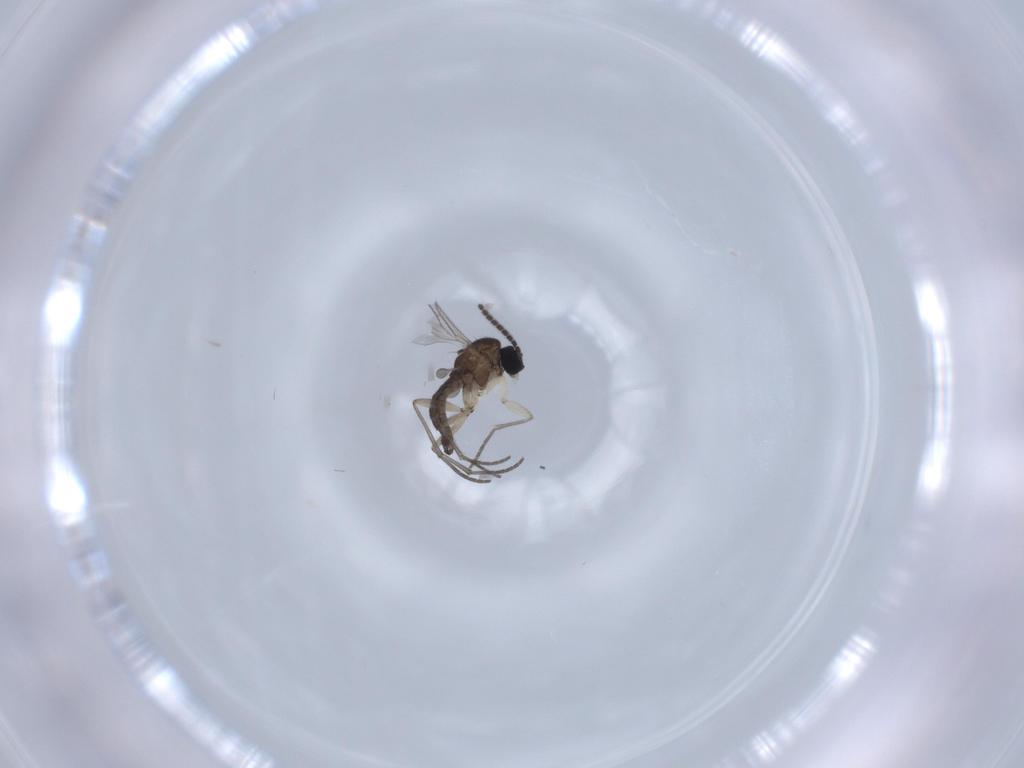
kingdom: Animalia
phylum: Arthropoda
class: Insecta
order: Diptera
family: Sciaridae
